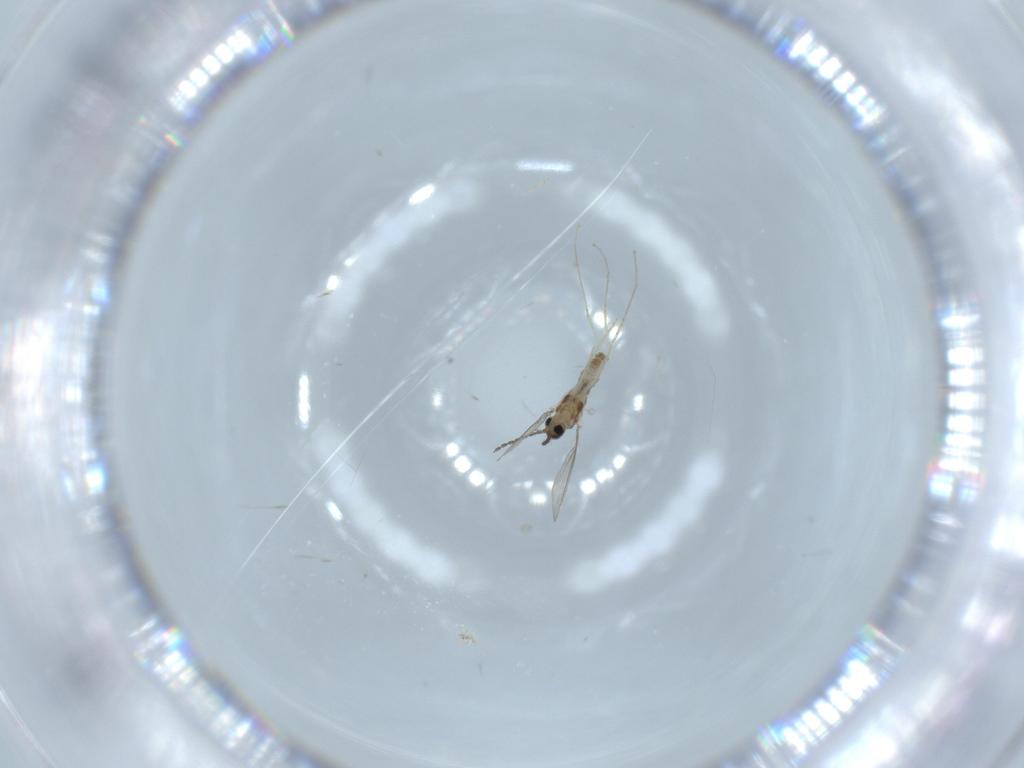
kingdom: Animalia
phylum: Arthropoda
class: Insecta
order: Diptera
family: Cecidomyiidae
